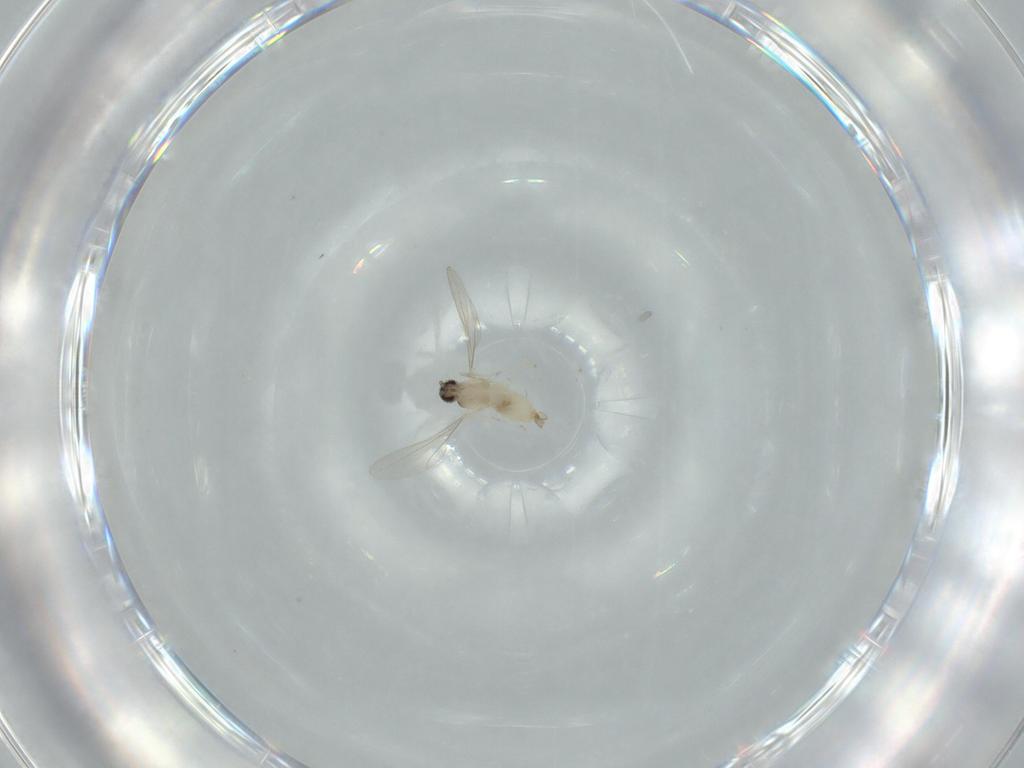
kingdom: Animalia
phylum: Arthropoda
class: Insecta
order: Diptera
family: Cecidomyiidae
